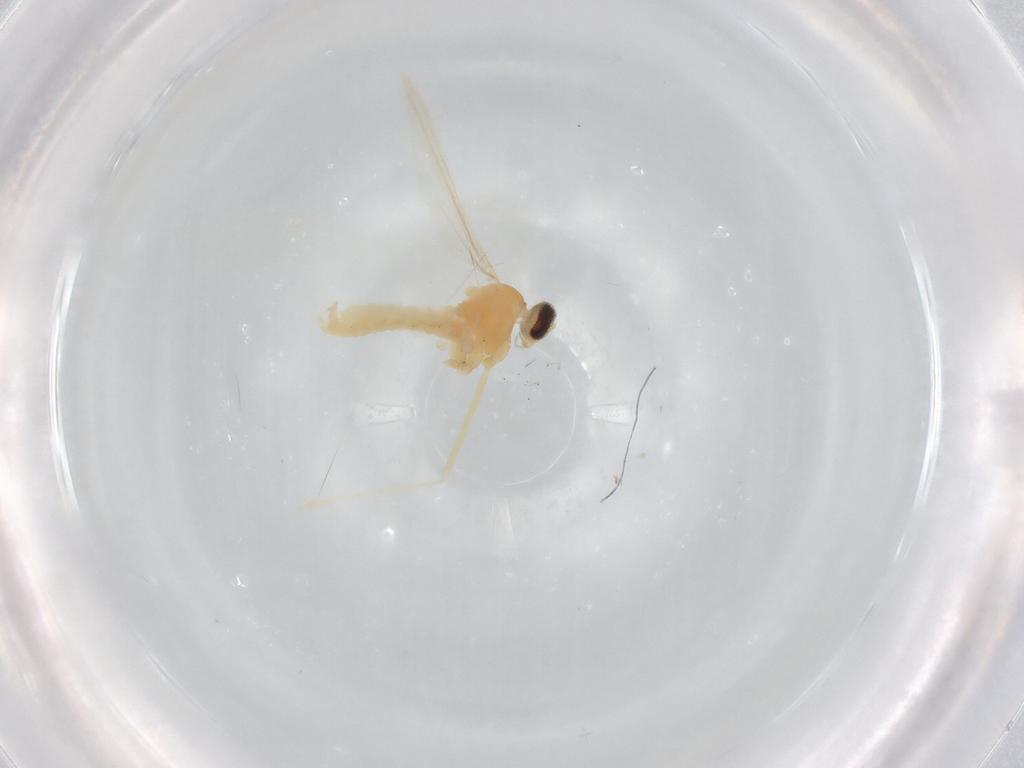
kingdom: Animalia
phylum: Arthropoda
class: Insecta
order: Diptera
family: Cecidomyiidae
